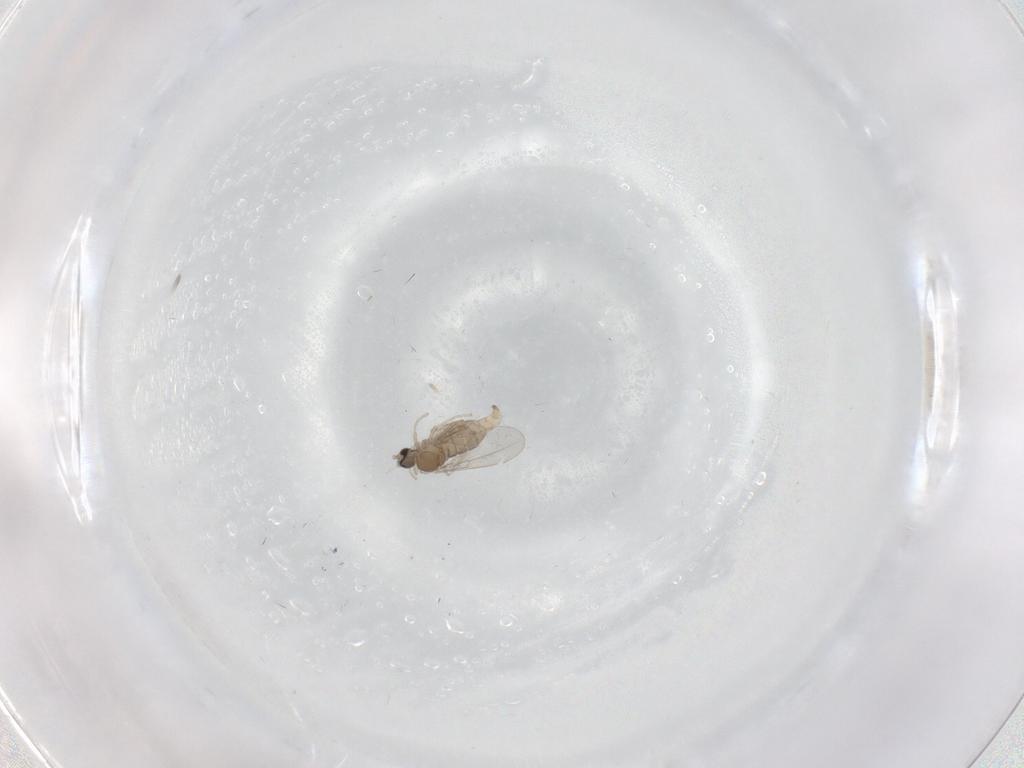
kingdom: Animalia
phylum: Arthropoda
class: Insecta
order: Diptera
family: Cecidomyiidae
